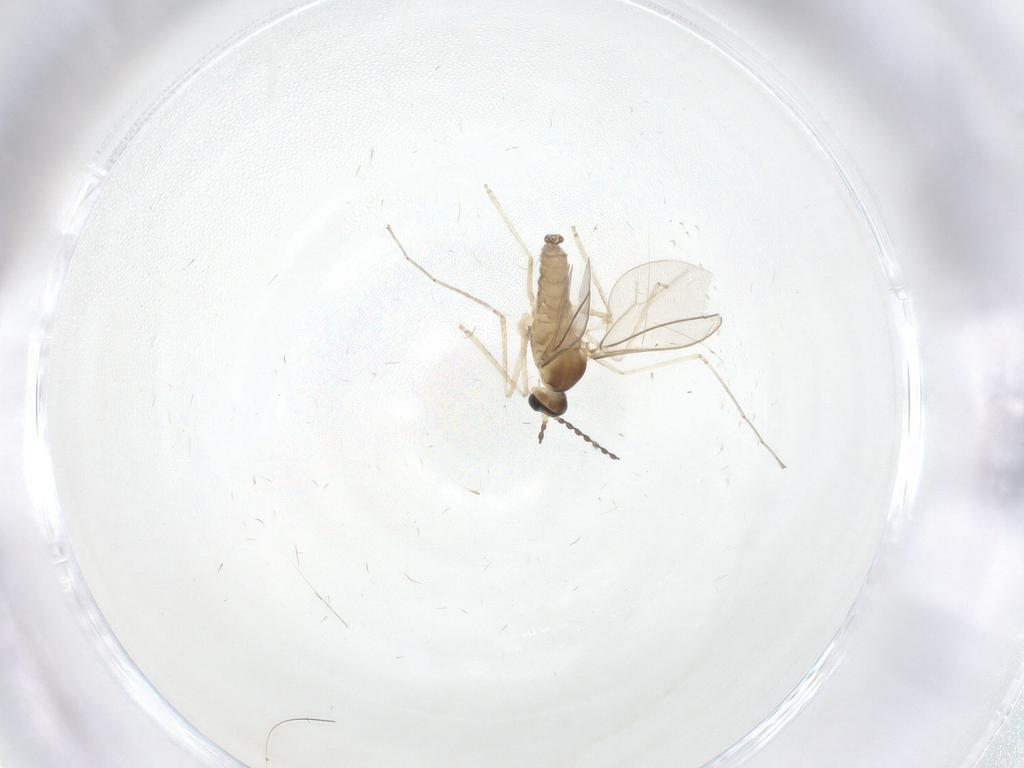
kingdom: Animalia
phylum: Arthropoda
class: Insecta
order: Diptera
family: Cecidomyiidae
